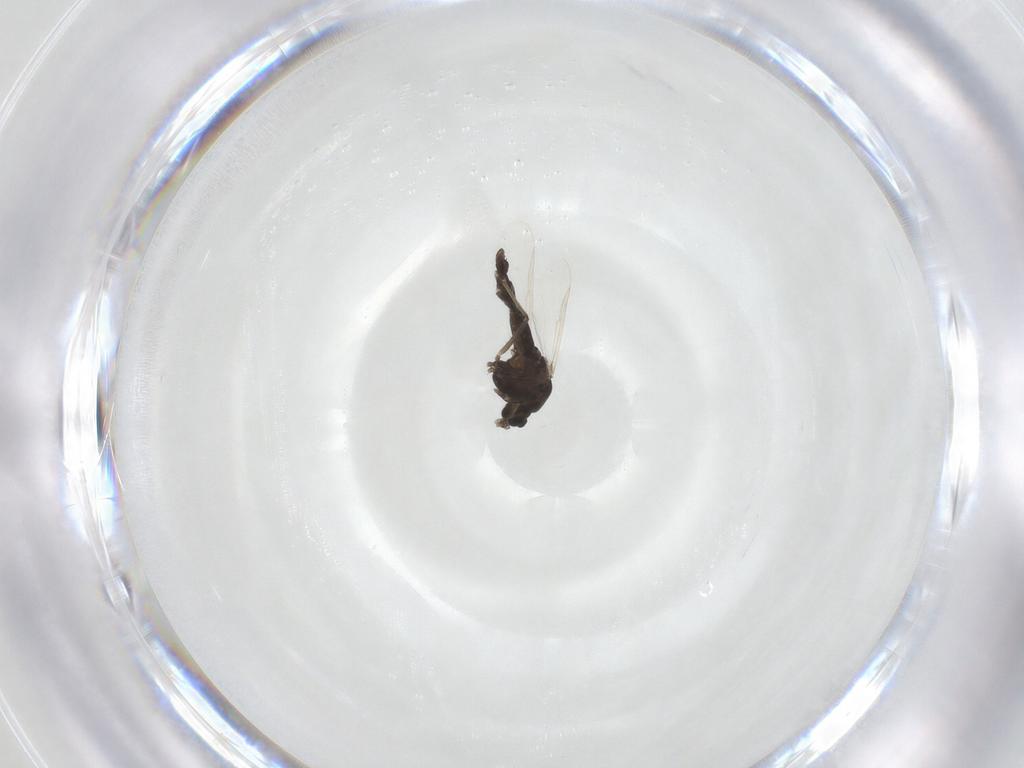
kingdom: Animalia
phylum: Arthropoda
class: Insecta
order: Diptera
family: Chironomidae
